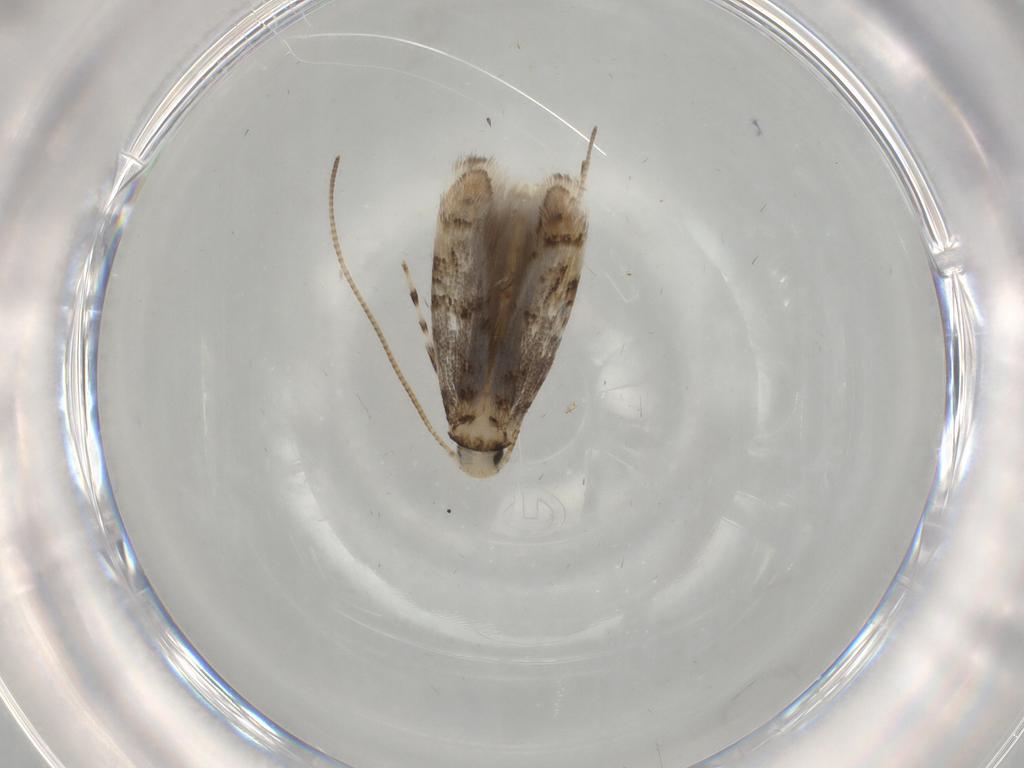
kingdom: Animalia
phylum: Arthropoda
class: Insecta
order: Lepidoptera
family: Gracillariidae
